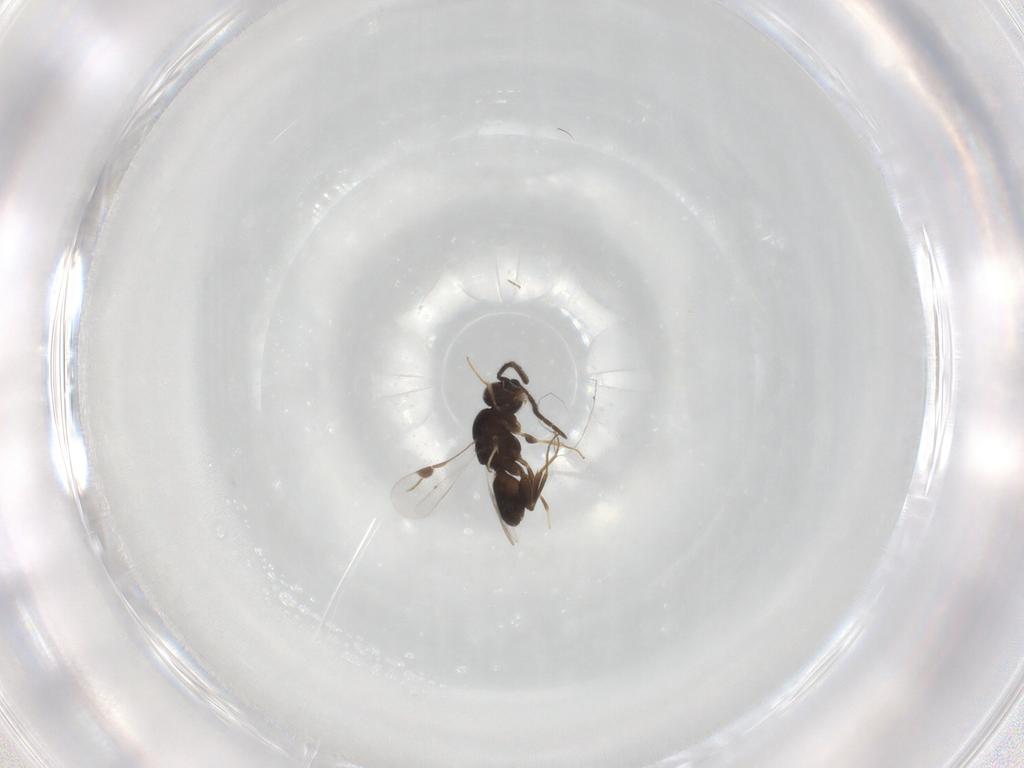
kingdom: Animalia
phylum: Arthropoda
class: Insecta
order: Hymenoptera
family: Megaspilidae
